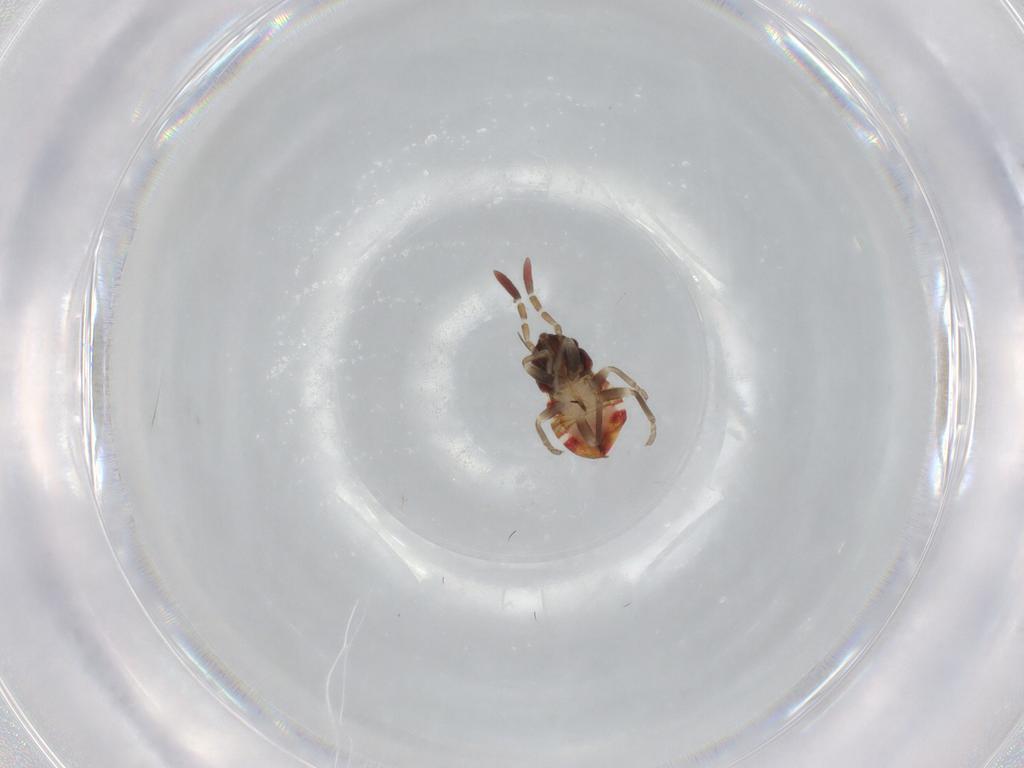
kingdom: Animalia
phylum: Arthropoda
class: Insecta
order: Hemiptera
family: Rhyparochromidae
